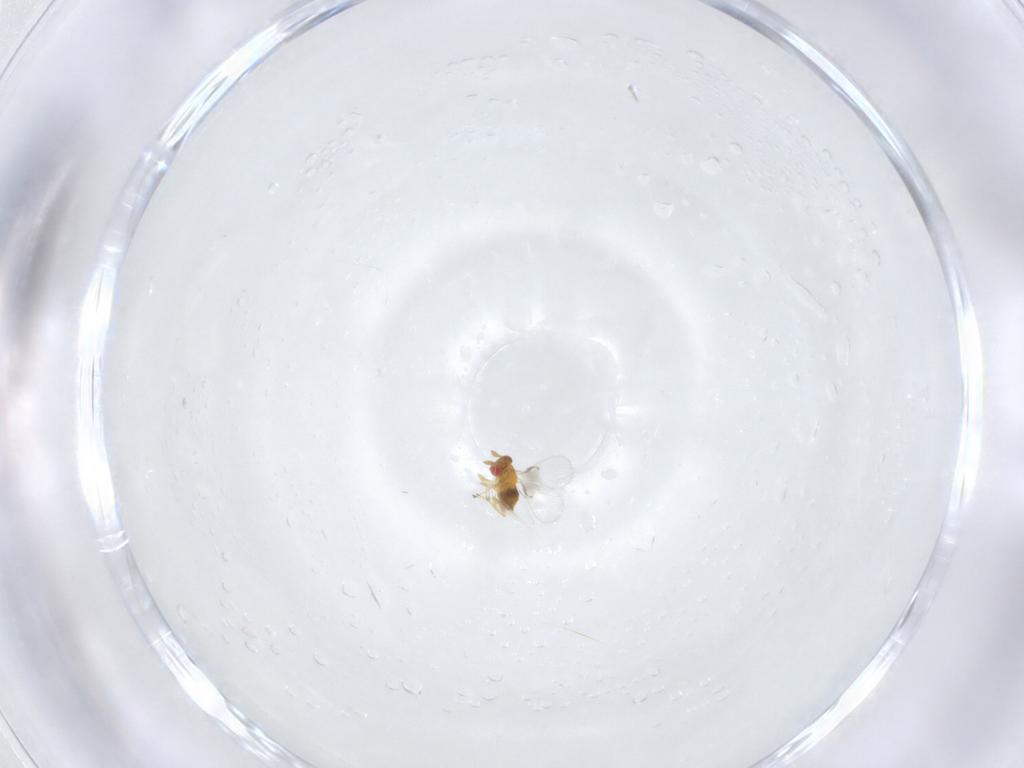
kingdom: Animalia
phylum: Arthropoda
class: Insecta
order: Hymenoptera
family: Trichogrammatidae
